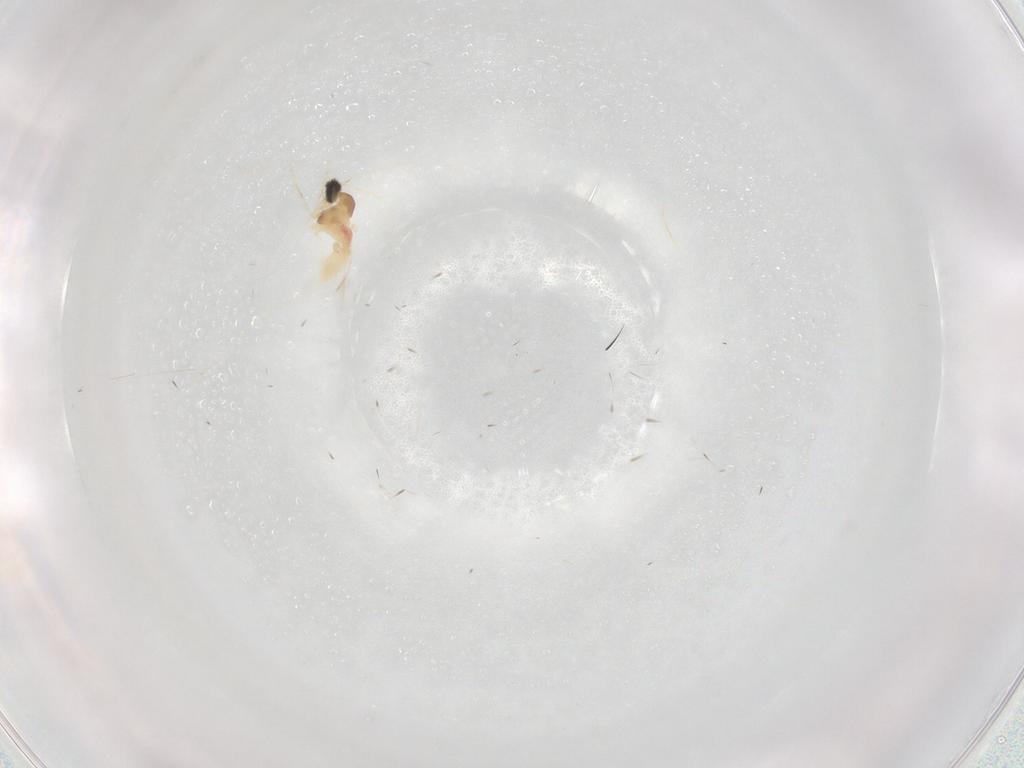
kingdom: Animalia
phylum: Arthropoda
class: Insecta
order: Diptera
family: Cecidomyiidae
